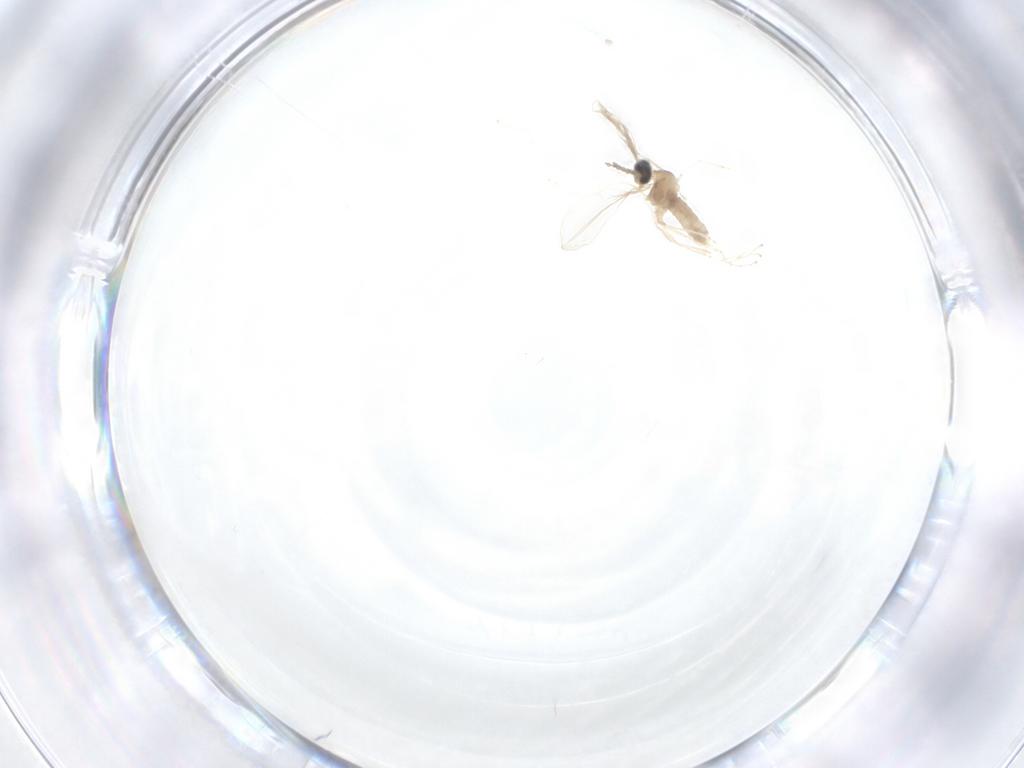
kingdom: Animalia
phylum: Arthropoda
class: Insecta
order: Diptera
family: Cecidomyiidae
